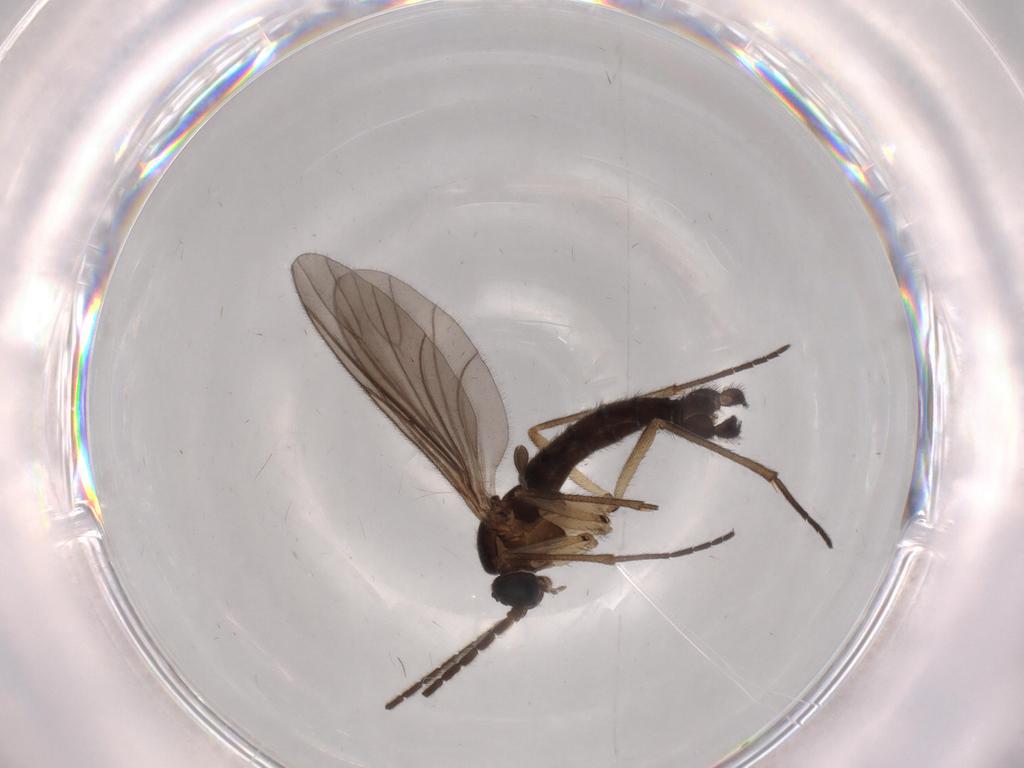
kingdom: Animalia
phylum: Arthropoda
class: Insecta
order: Diptera
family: Sciaridae
